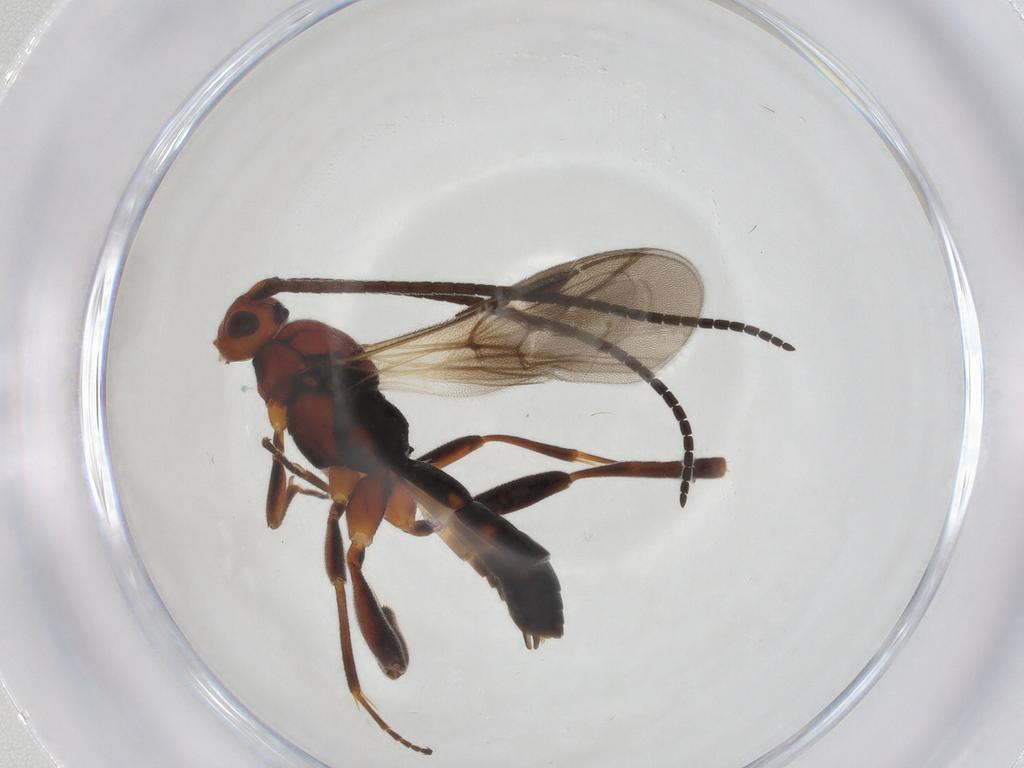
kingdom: Animalia
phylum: Arthropoda
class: Insecta
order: Hymenoptera
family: Braconidae
